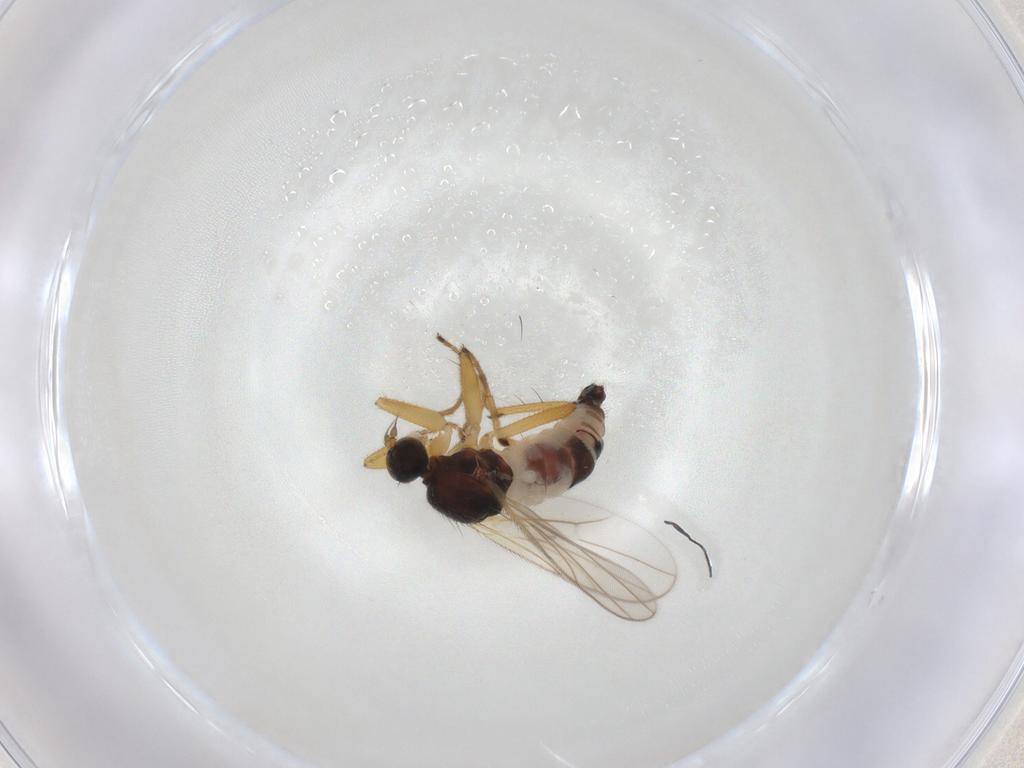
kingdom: Animalia
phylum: Arthropoda
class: Insecta
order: Diptera
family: Hybotidae
